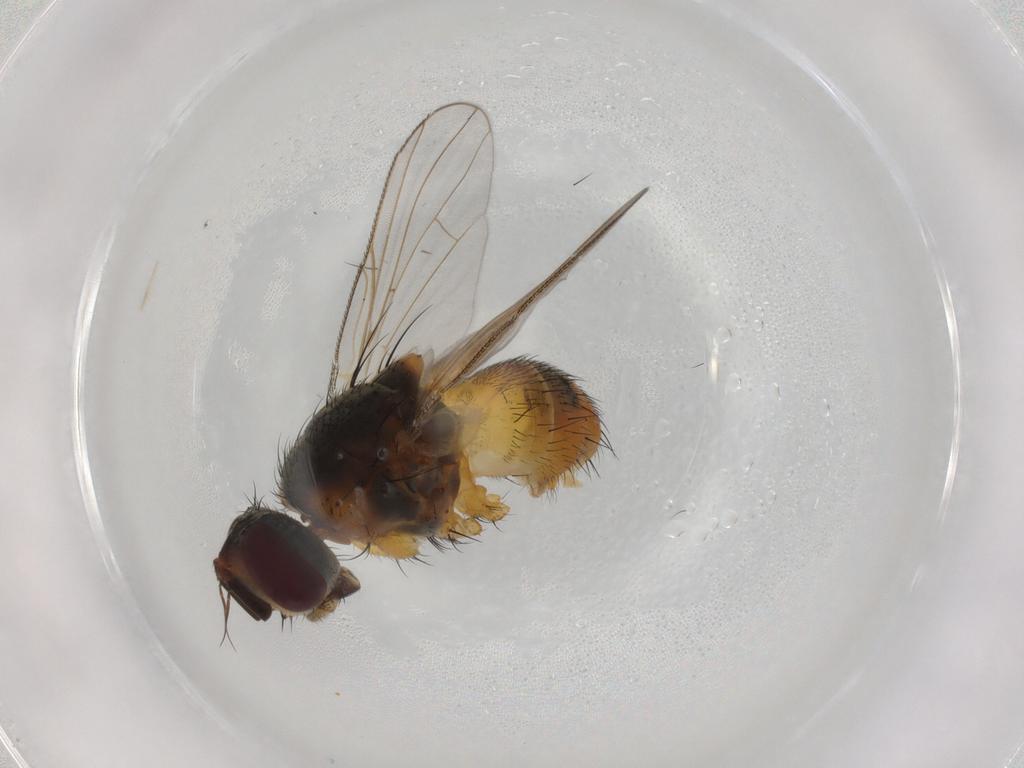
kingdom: Animalia
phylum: Arthropoda
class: Insecta
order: Diptera
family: Muscidae
